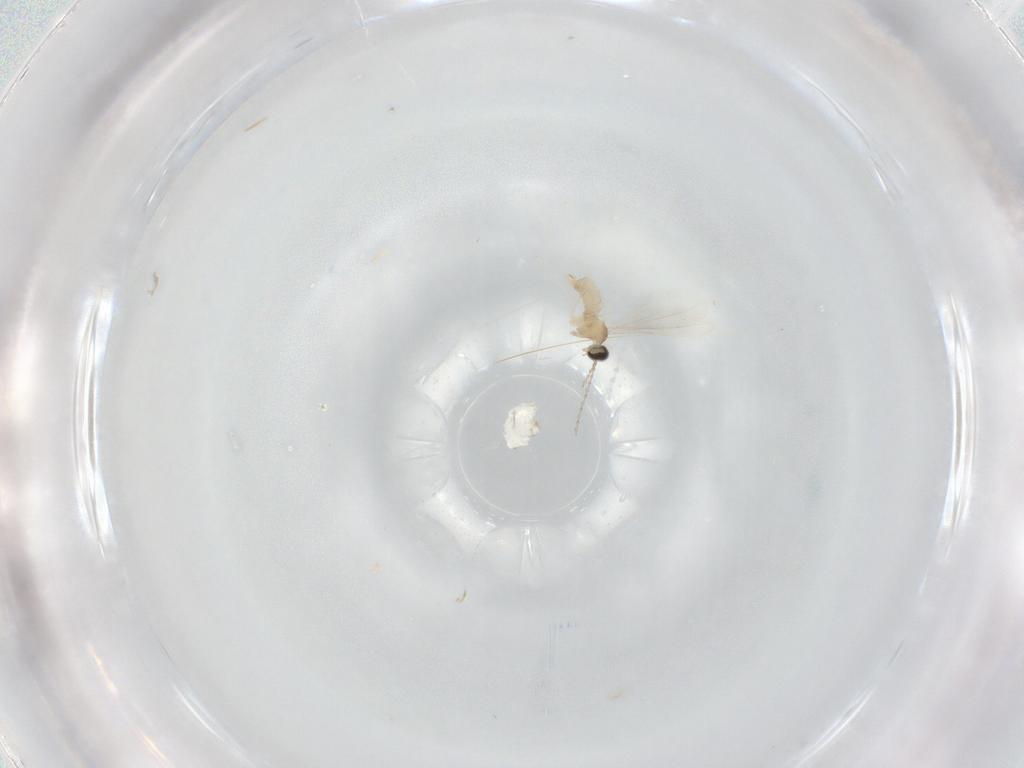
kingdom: Animalia
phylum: Arthropoda
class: Insecta
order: Diptera
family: Cecidomyiidae
